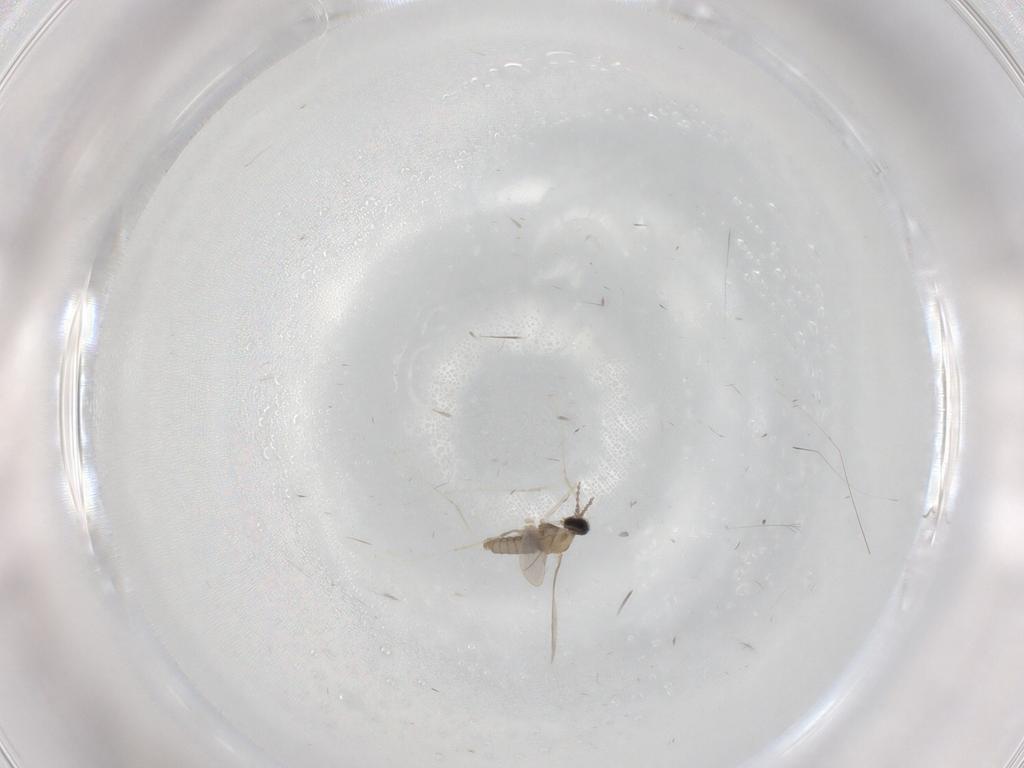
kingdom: Animalia
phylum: Arthropoda
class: Insecta
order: Diptera
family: Cecidomyiidae
